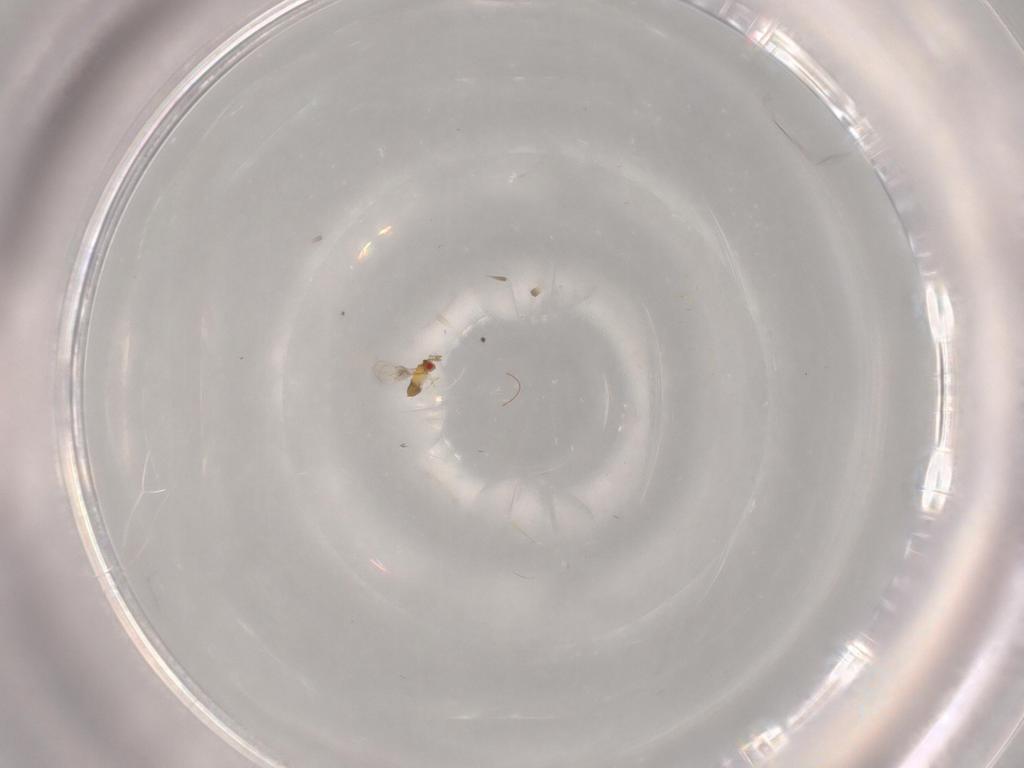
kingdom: Animalia
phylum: Arthropoda
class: Insecta
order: Hymenoptera
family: Trichogrammatidae
